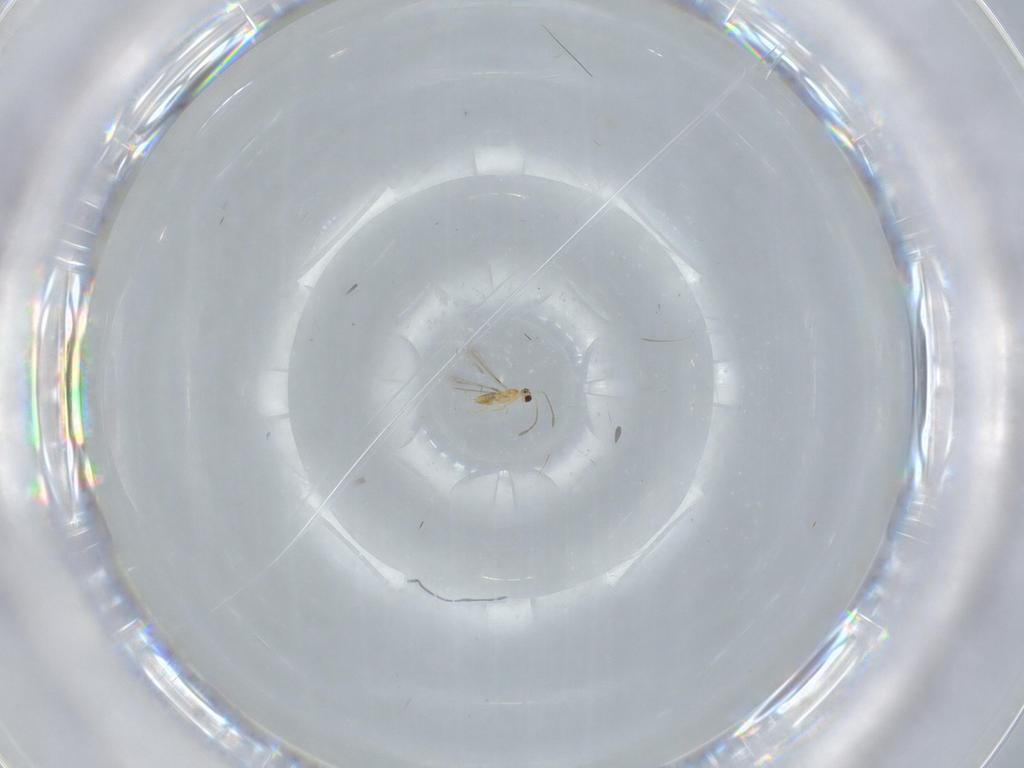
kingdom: Animalia
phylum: Arthropoda
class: Insecta
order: Hymenoptera
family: Mymaridae
